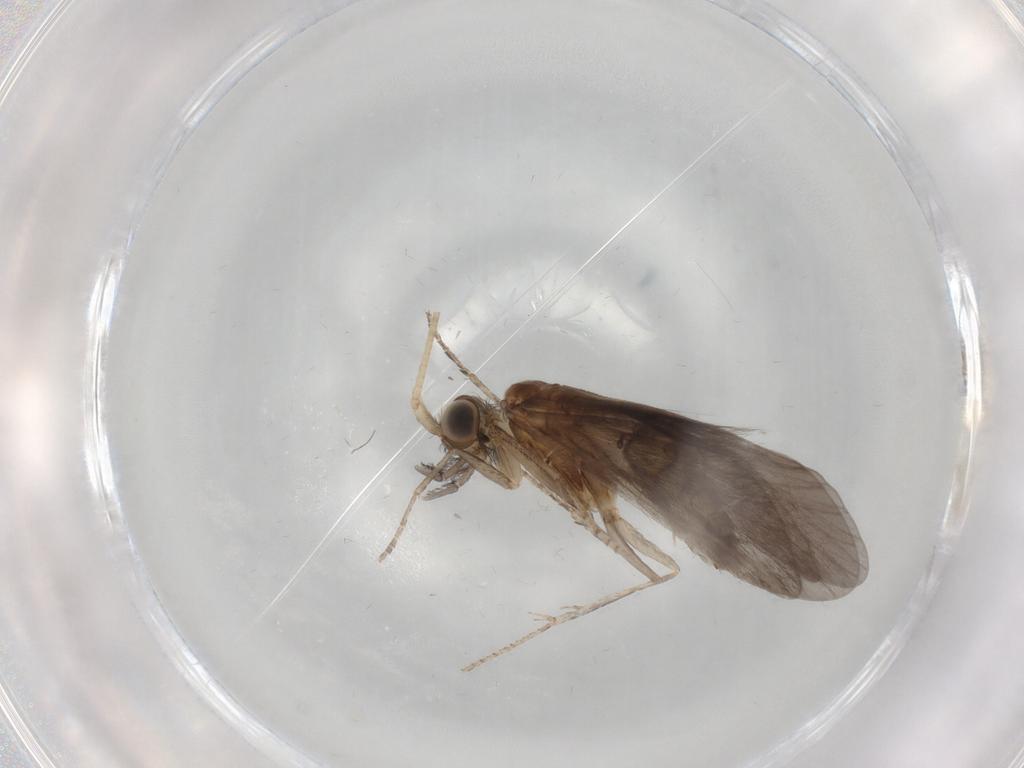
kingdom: Animalia
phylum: Arthropoda
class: Insecta
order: Trichoptera
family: Helicopsychidae
